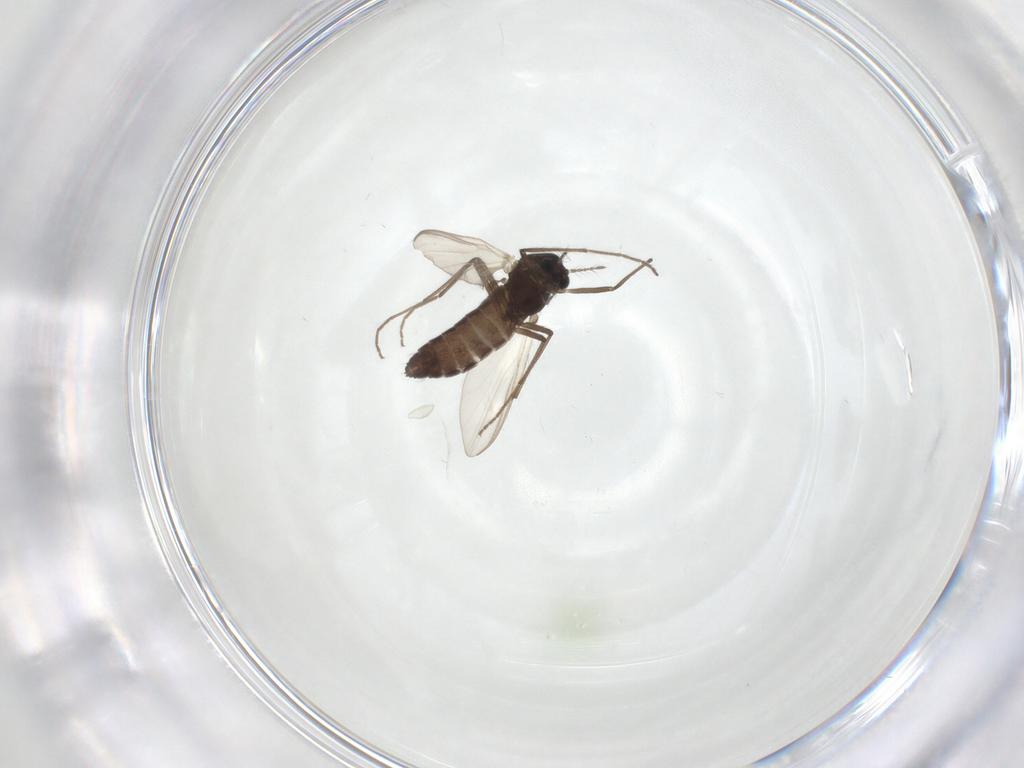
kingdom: Animalia
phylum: Arthropoda
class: Insecta
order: Diptera
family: Chironomidae
